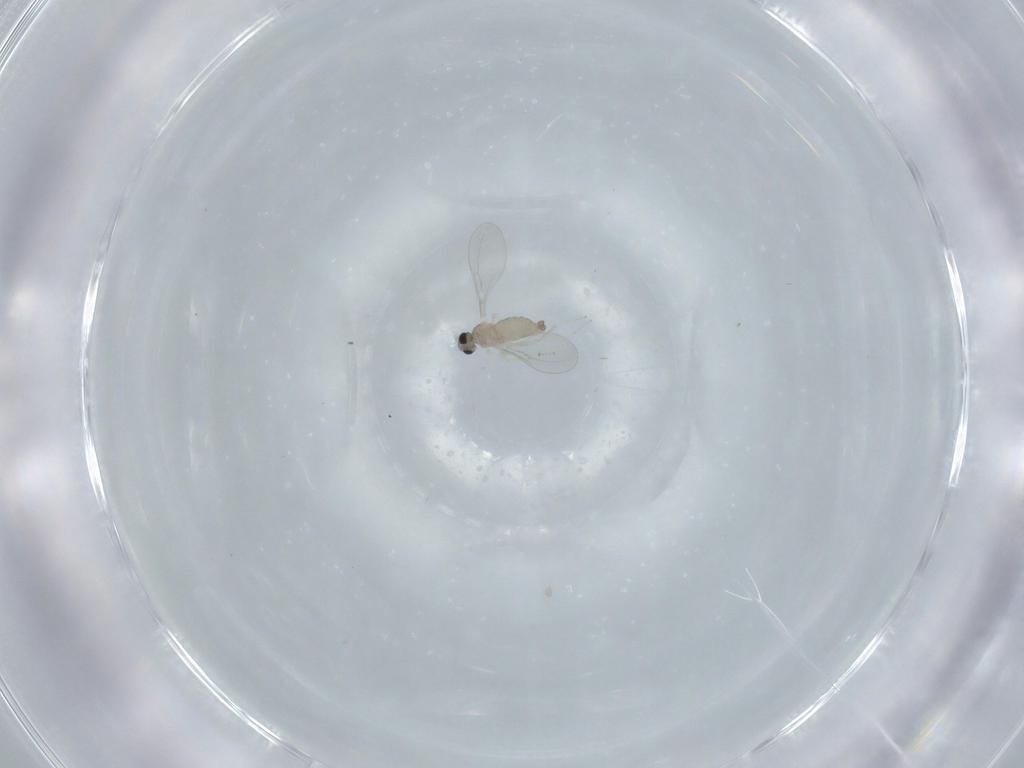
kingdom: Animalia
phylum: Arthropoda
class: Insecta
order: Diptera
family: Cecidomyiidae
